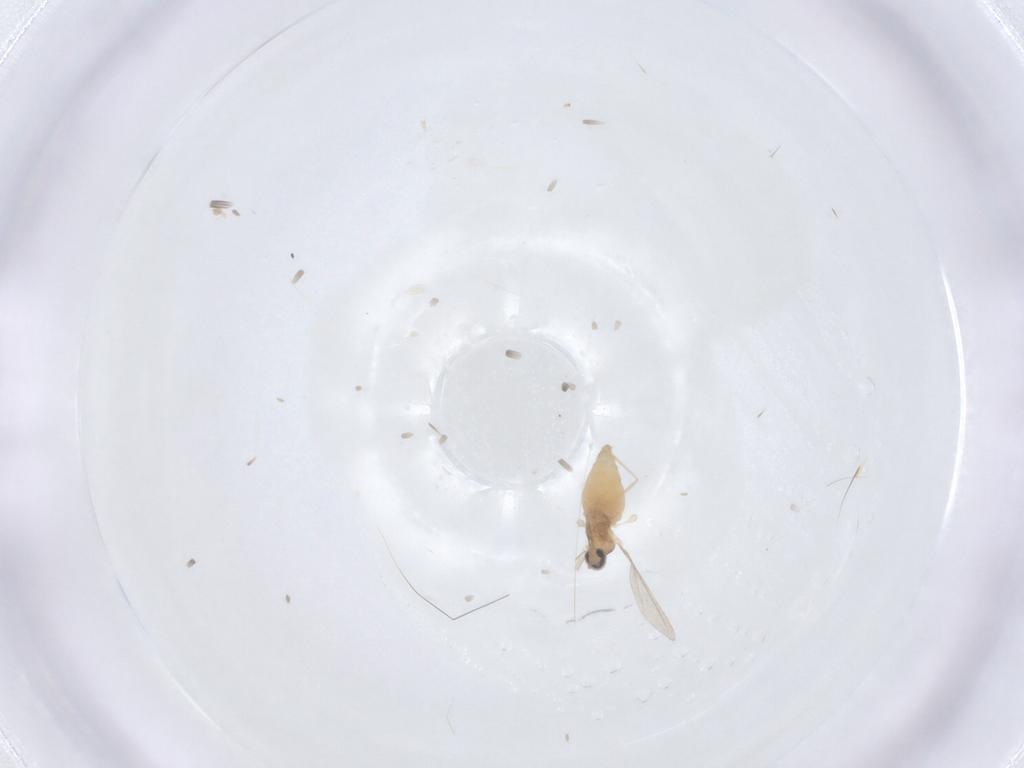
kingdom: Animalia
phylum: Arthropoda
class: Insecta
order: Diptera
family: Cecidomyiidae
